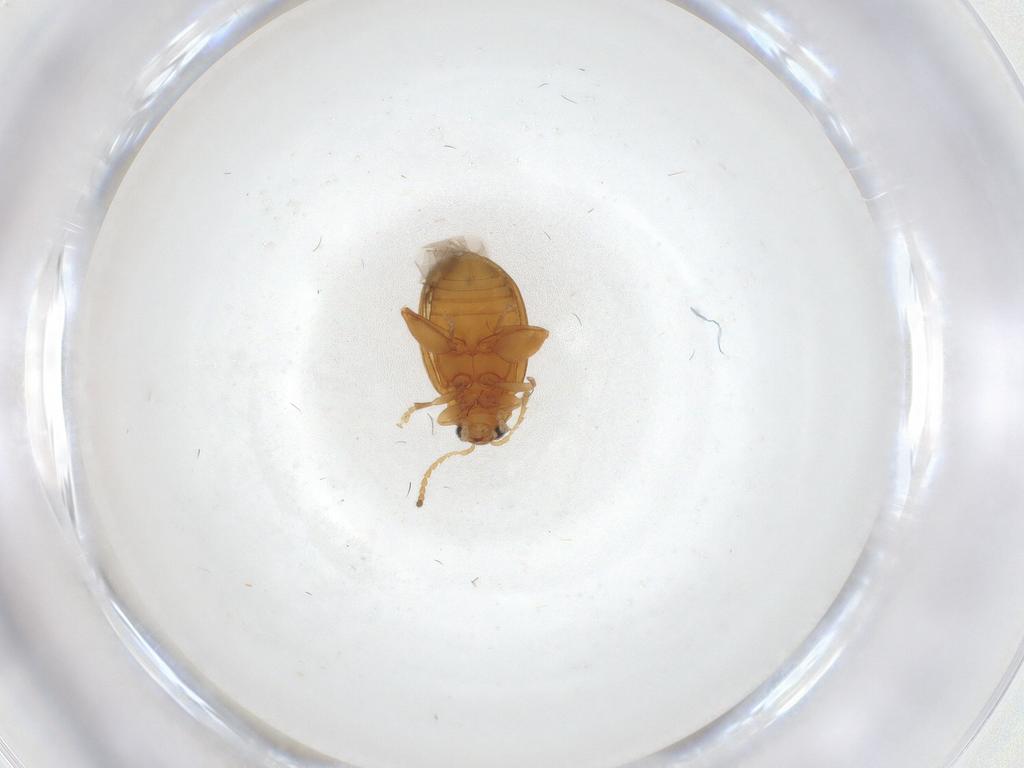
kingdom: Animalia
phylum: Arthropoda
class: Insecta
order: Coleoptera
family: Chrysomelidae
